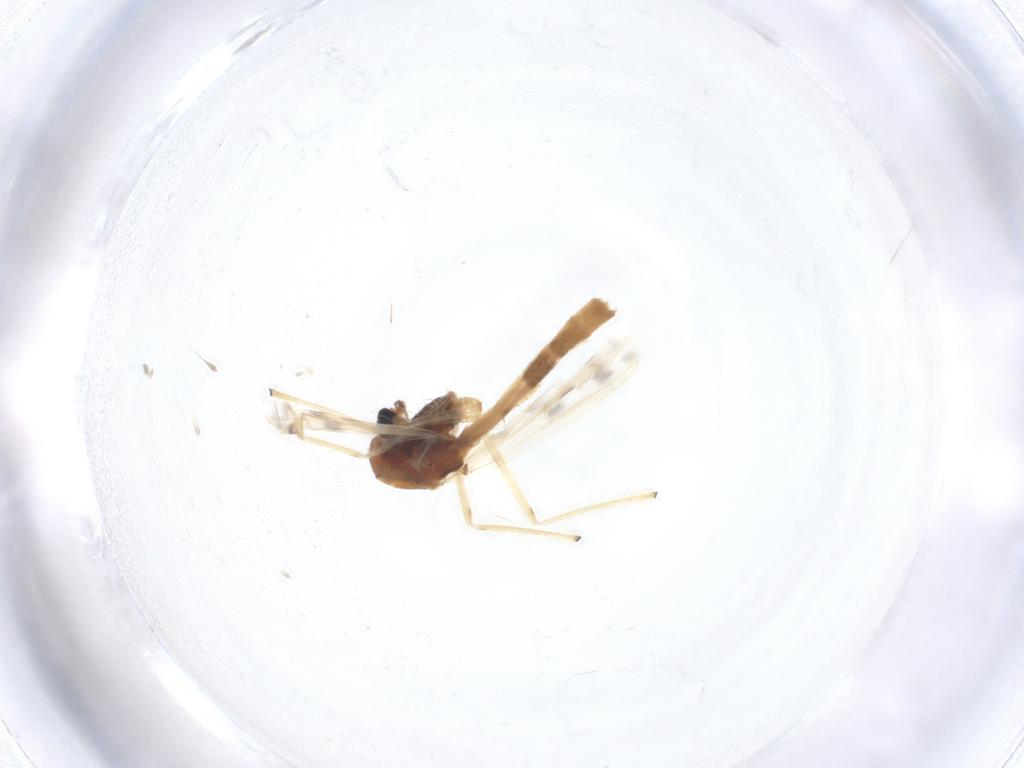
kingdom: Animalia
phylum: Arthropoda
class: Insecta
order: Diptera
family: Chironomidae
